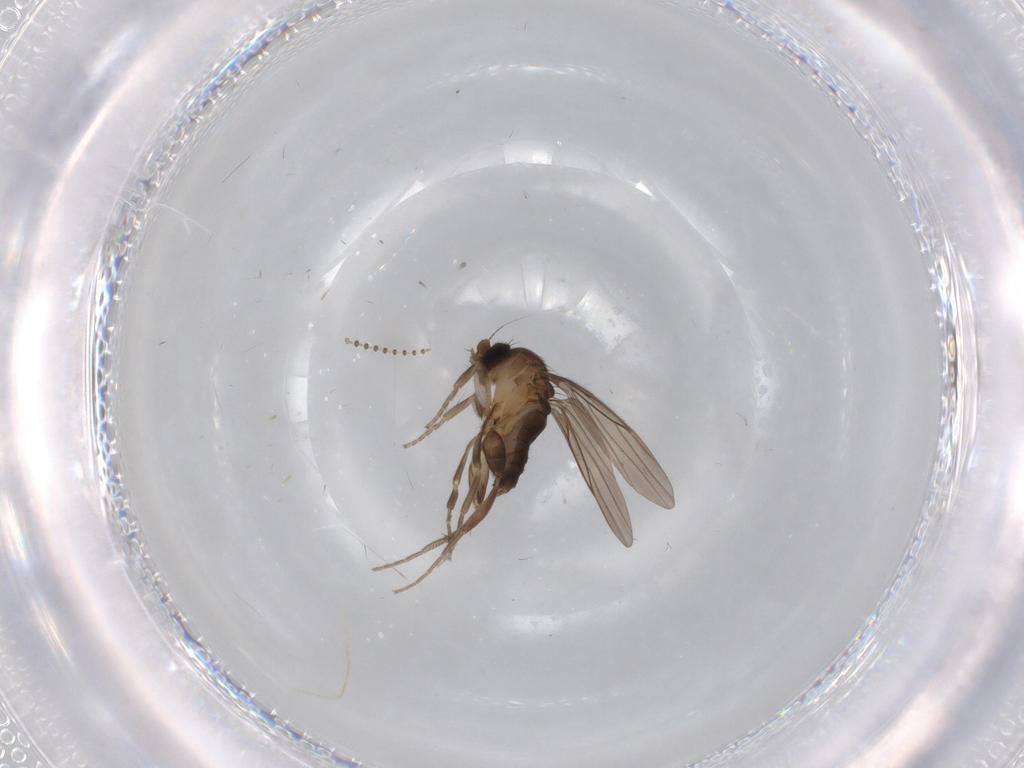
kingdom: Animalia
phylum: Arthropoda
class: Insecta
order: Diptera
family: Psychodidae
